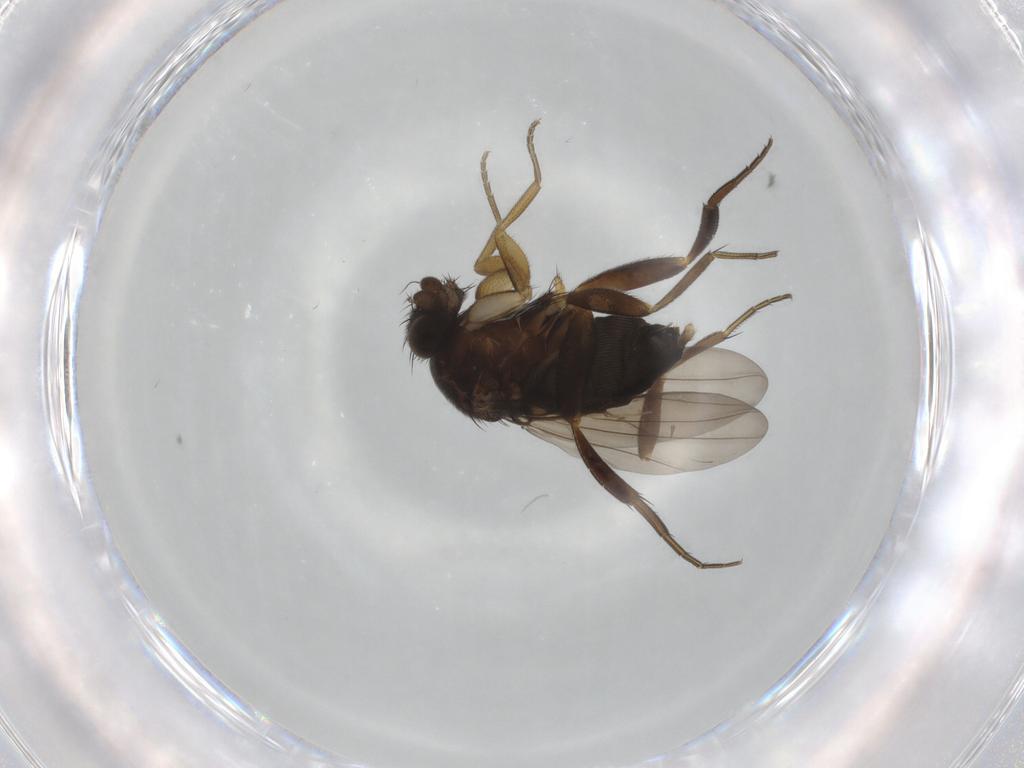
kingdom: Animalia
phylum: Arthropoda
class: Insecta
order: Diptera
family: Phoridae
